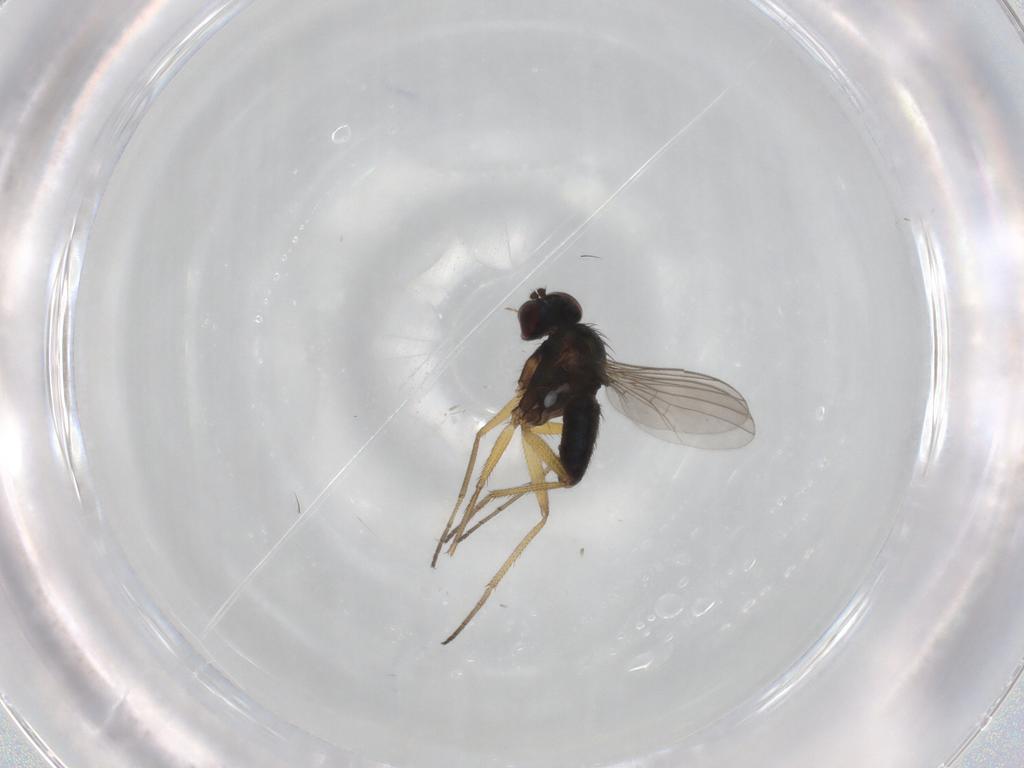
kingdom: Animalia
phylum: Arthropoda
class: Insecta
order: Diptera
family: Dolichopodidae
